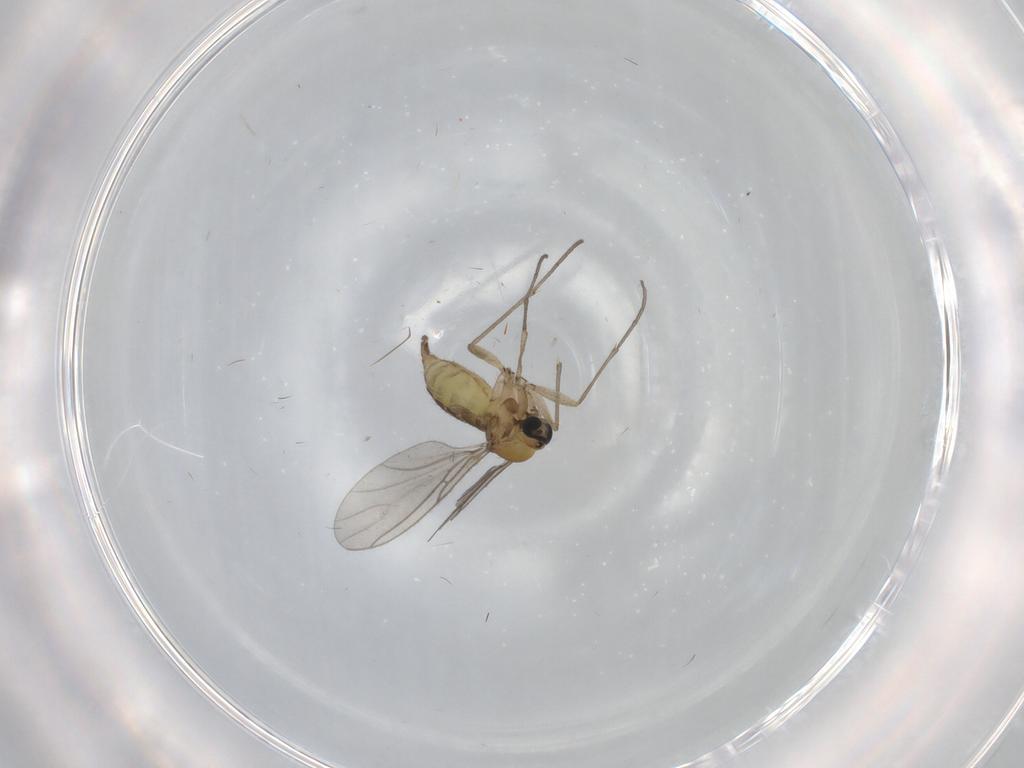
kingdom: Animalia
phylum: Arthropoda
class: Insecta
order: Diptera
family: Sciaridae
